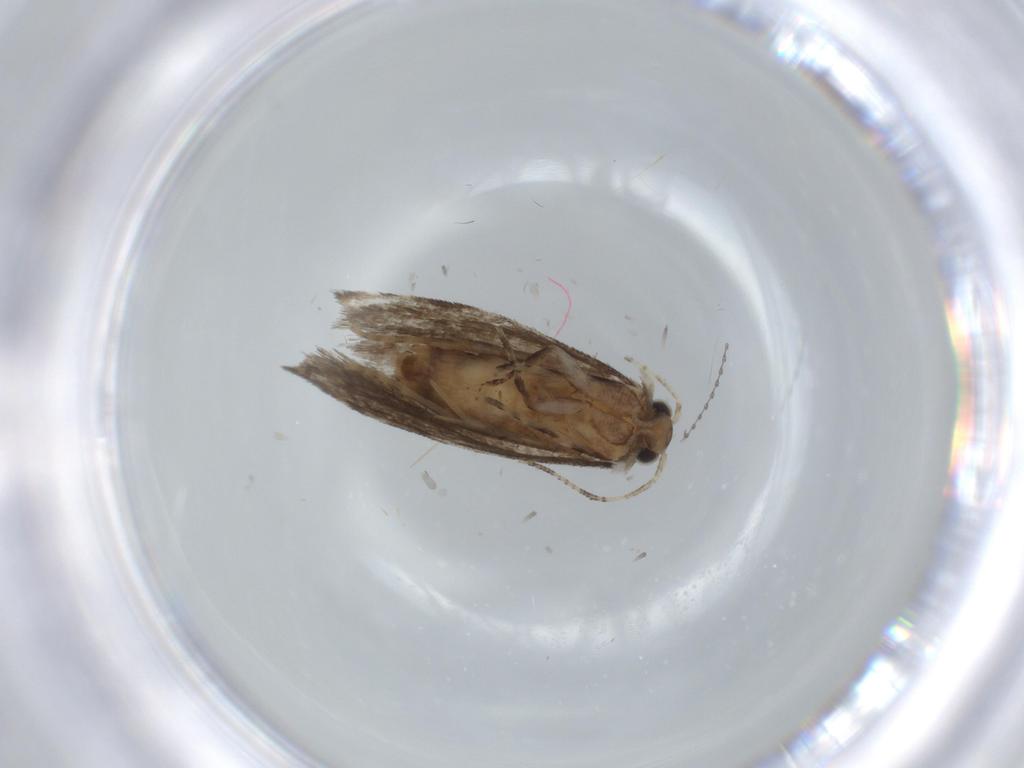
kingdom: Animalia
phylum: Arthropoda
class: Insecta
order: Lepidoptera
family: Tineidae
